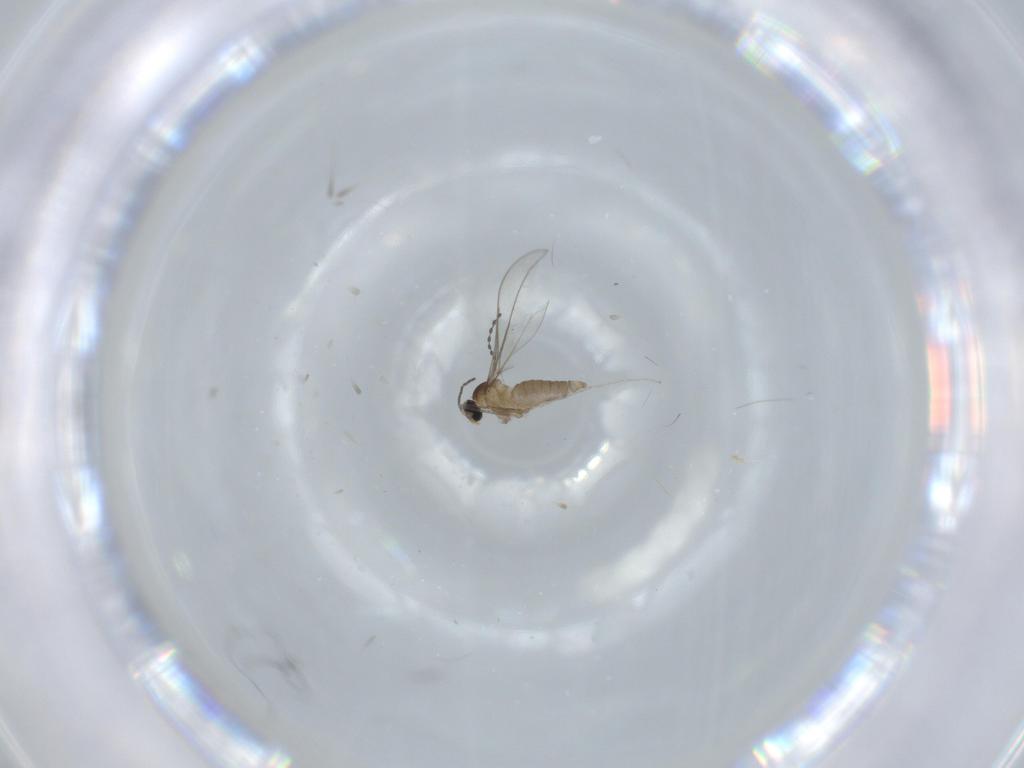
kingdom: Animalia
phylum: Arthropoda
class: Insecta
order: Diptera
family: Cecidomyiidae
